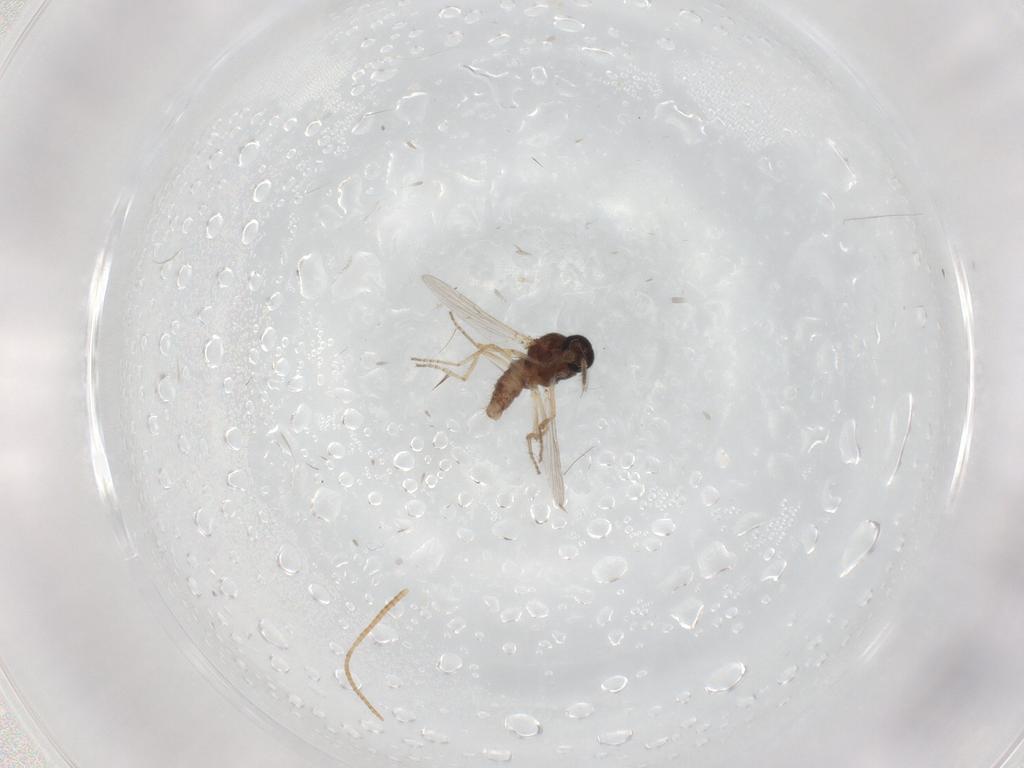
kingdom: Animalia
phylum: Arthropoda
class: Insecta
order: Diptera
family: Ceratopogonidae
